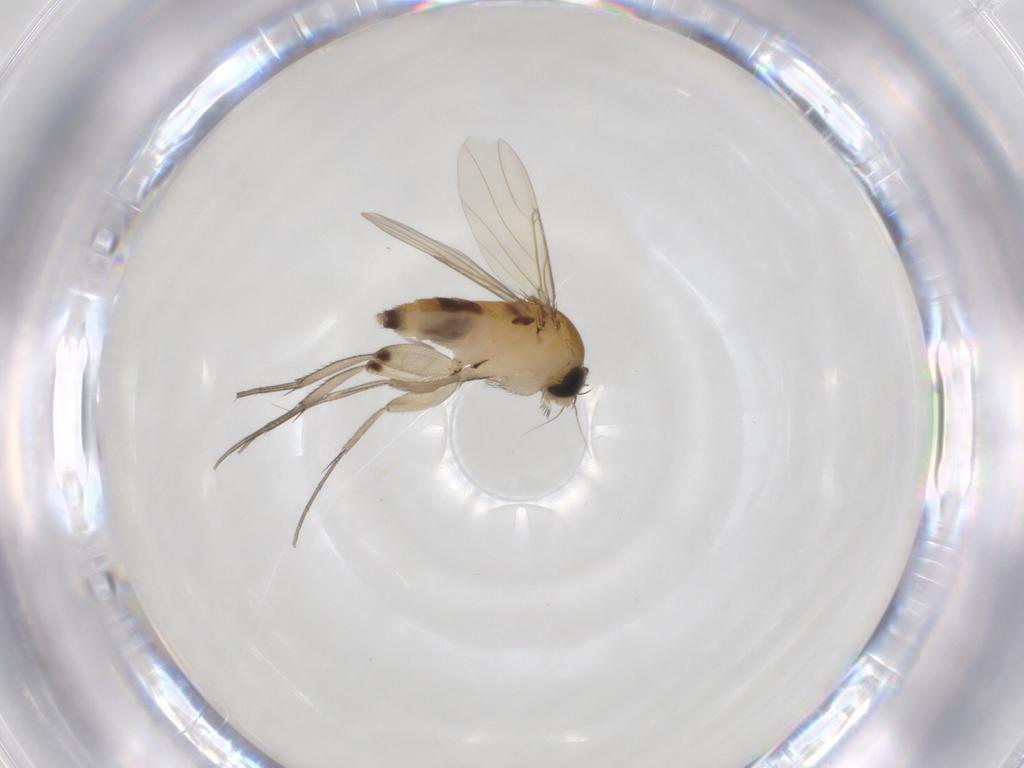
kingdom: Animalia
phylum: Arthropoda
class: Insecta
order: Diptera
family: Phoridae
